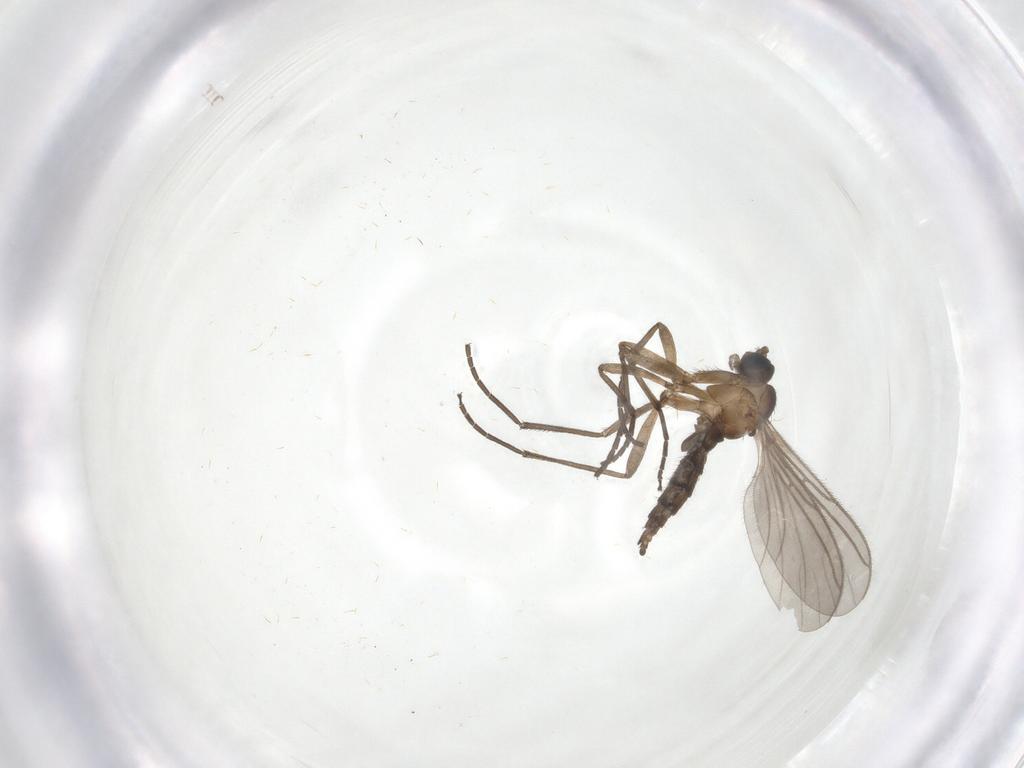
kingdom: Animalia
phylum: Arthropoda
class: Insecta
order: Diptera
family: Sciaridae
